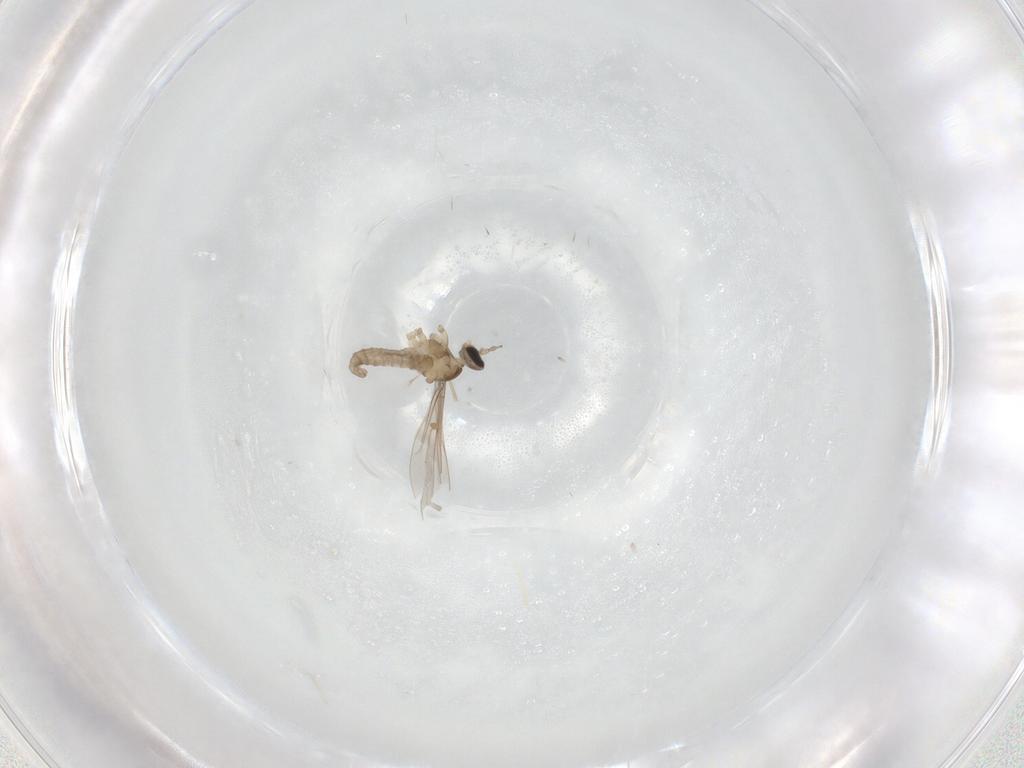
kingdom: Animalia
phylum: Arthropoda
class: Insecta
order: Diptera
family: Cecidomyiidae
